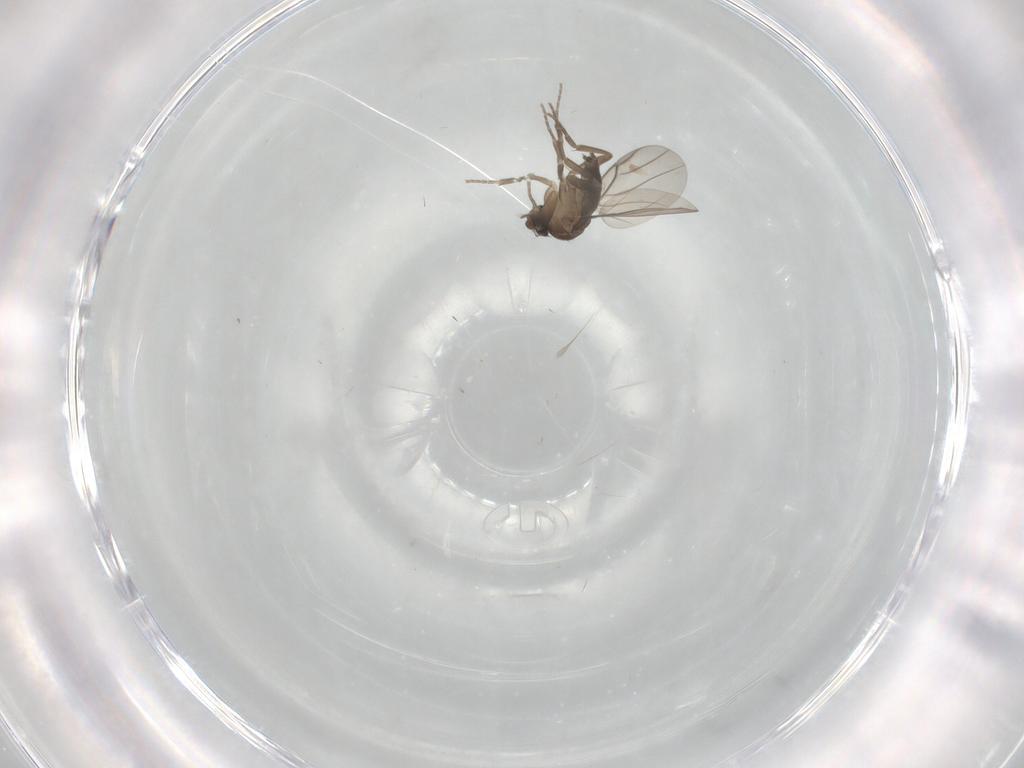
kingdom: Animalia
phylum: Arthropoda
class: Insecta
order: Diptera
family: Phoridae
